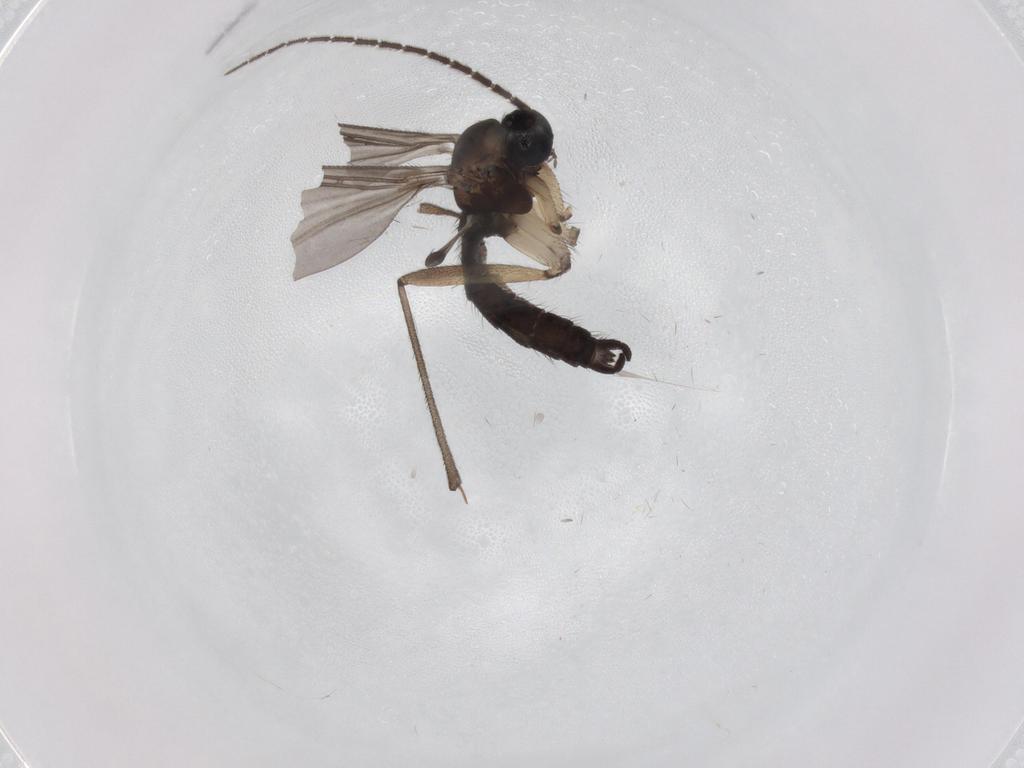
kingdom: Animalia
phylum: Arthropoda
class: Insecta
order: Diptera
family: Sciaridae
